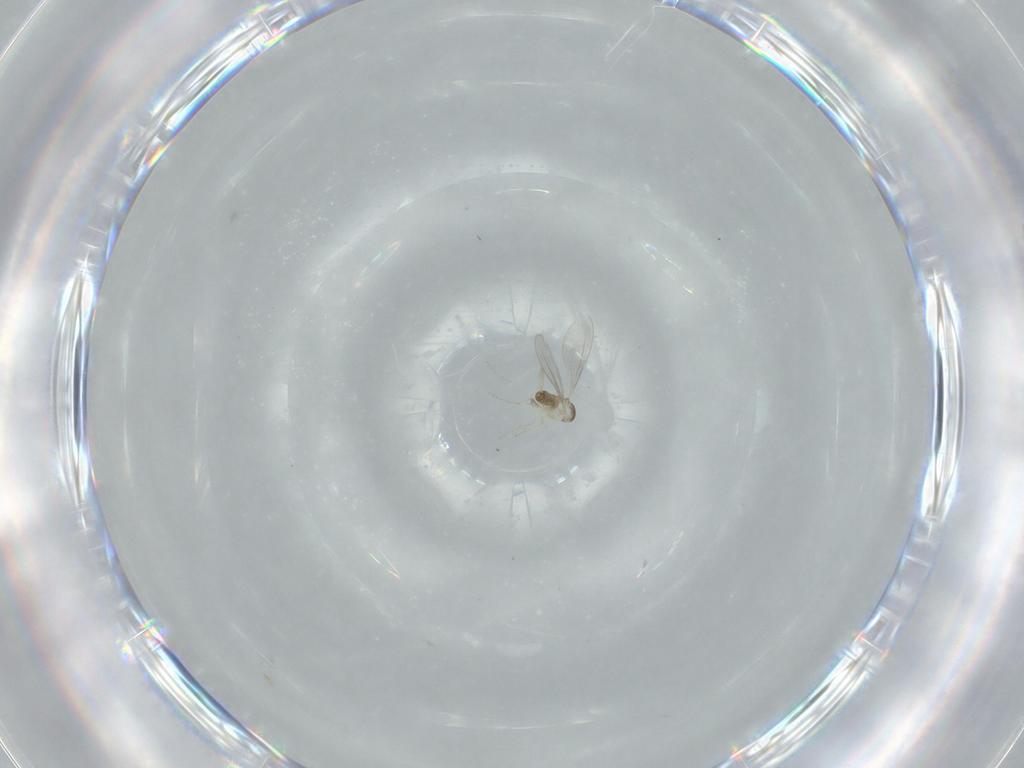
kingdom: Animalia
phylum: Arthropoda
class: Insecta
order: Diptera
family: Cecidomyiidae
